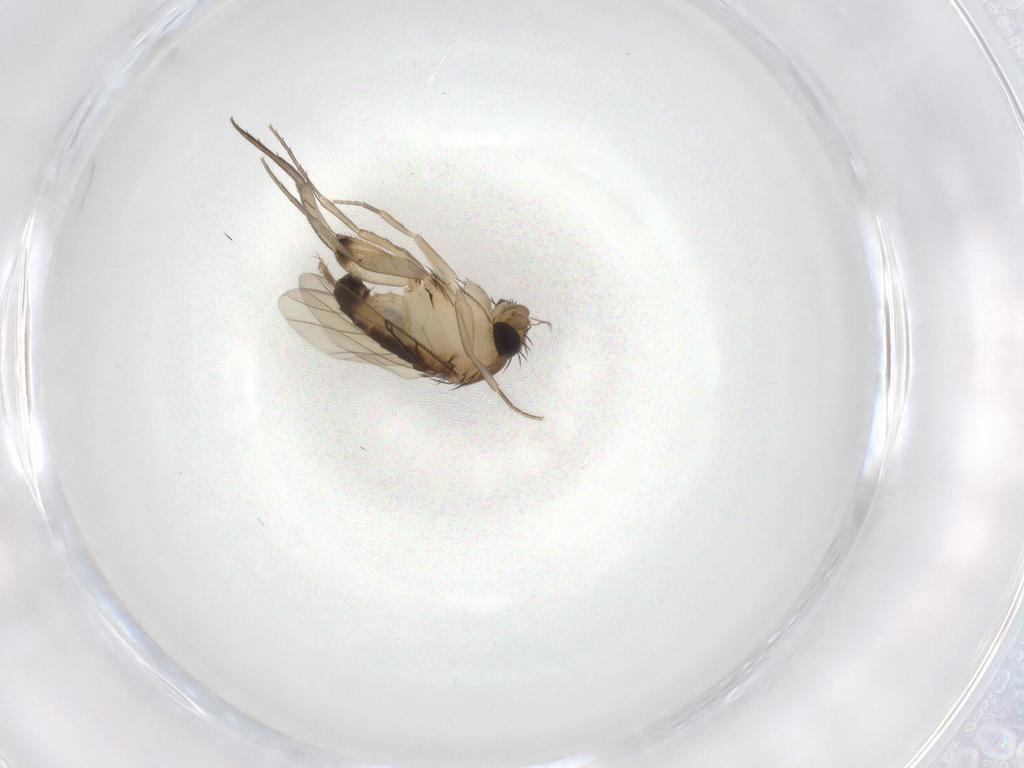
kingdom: Animalia
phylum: Arthropoda
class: Insecta
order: Diptera
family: Phoridae
